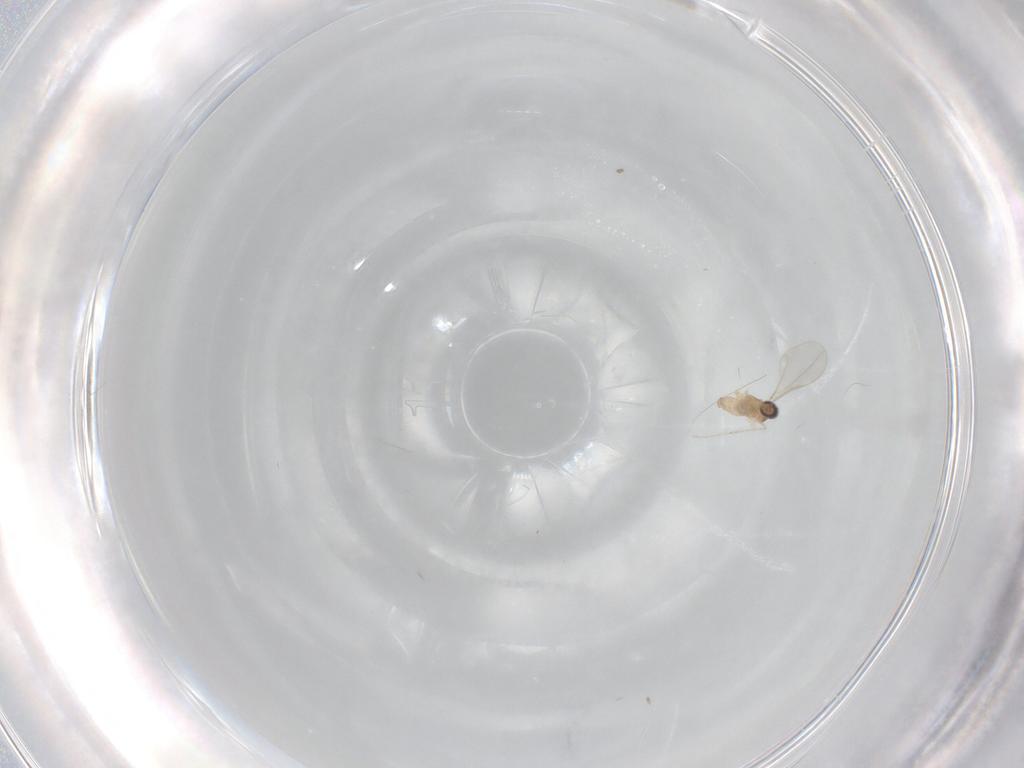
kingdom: Animalia
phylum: Arthropoda
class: Insecta
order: Diptera
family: Cecidomyiidae
